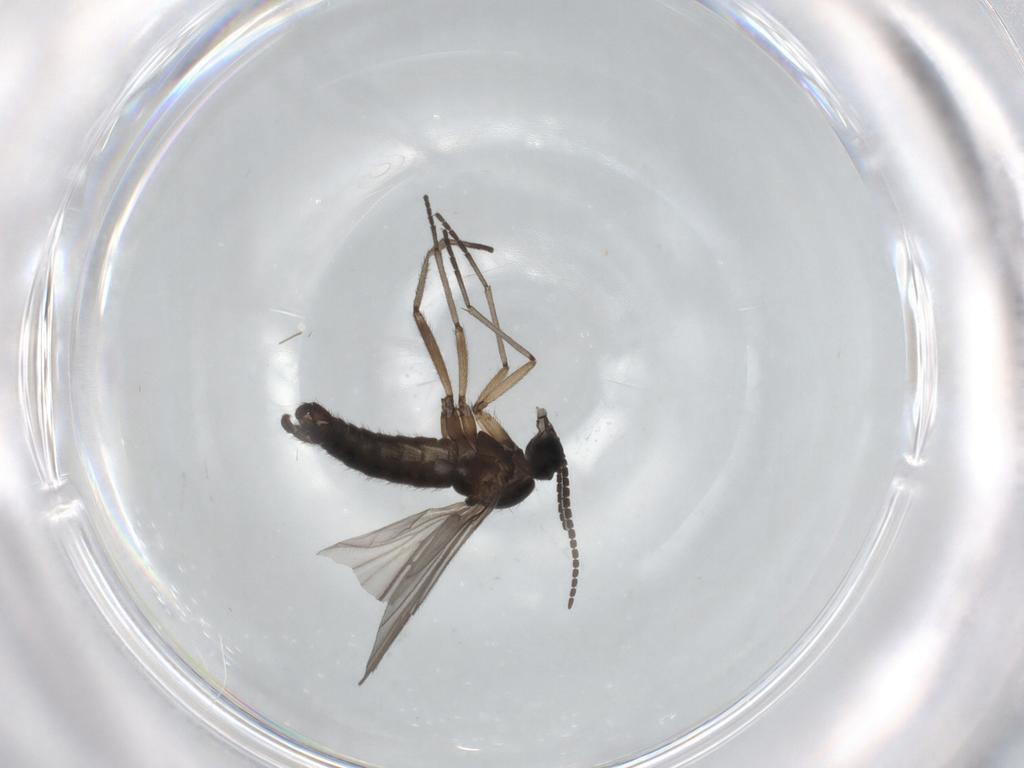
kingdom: Animalia
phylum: Arthropoda
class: Insecta
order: Diptera
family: Sciaridae
